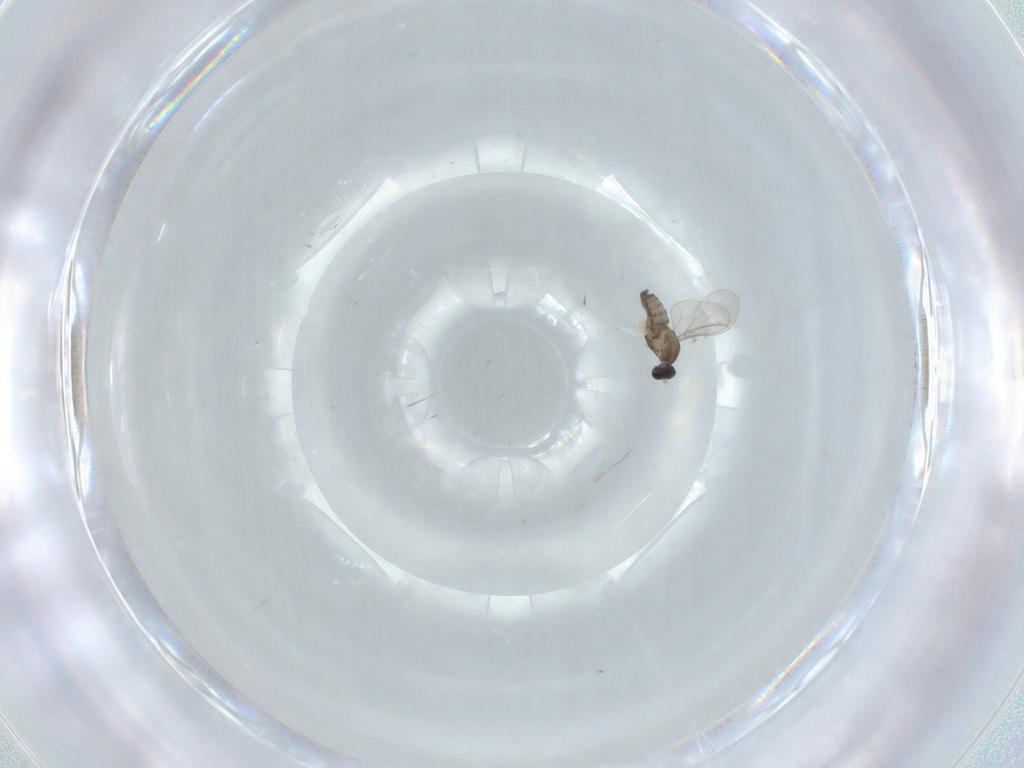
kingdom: Animalia
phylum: Arthropoda
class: Insecta
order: Diptera
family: Cecidomyiidae
